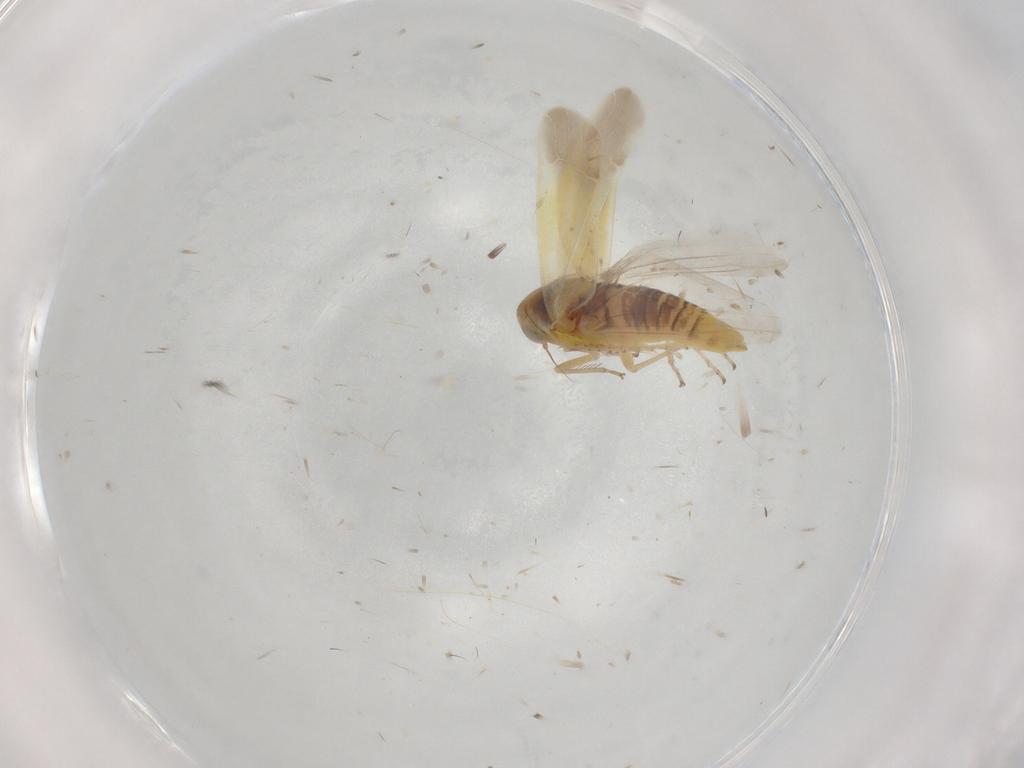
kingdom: Animalia
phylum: Arthropoda
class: Insecta
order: Hemiptera
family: Cicadellidae
